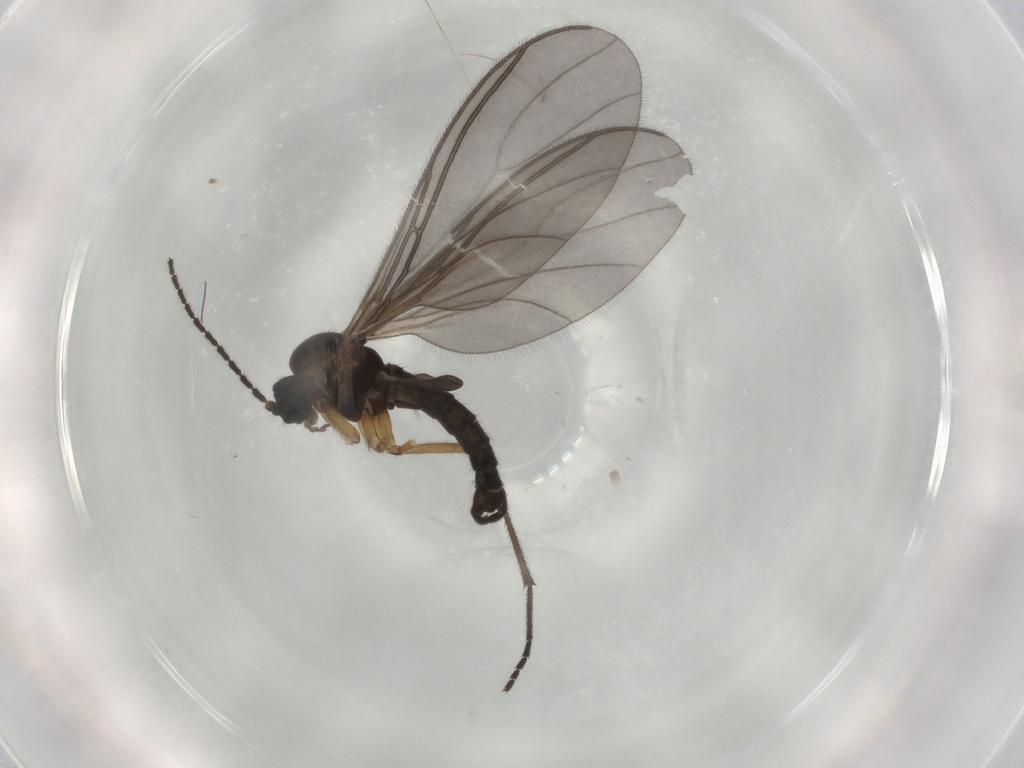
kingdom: Animalia
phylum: Arthropoda
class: Insecta
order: Diptera
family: Sciaridae
